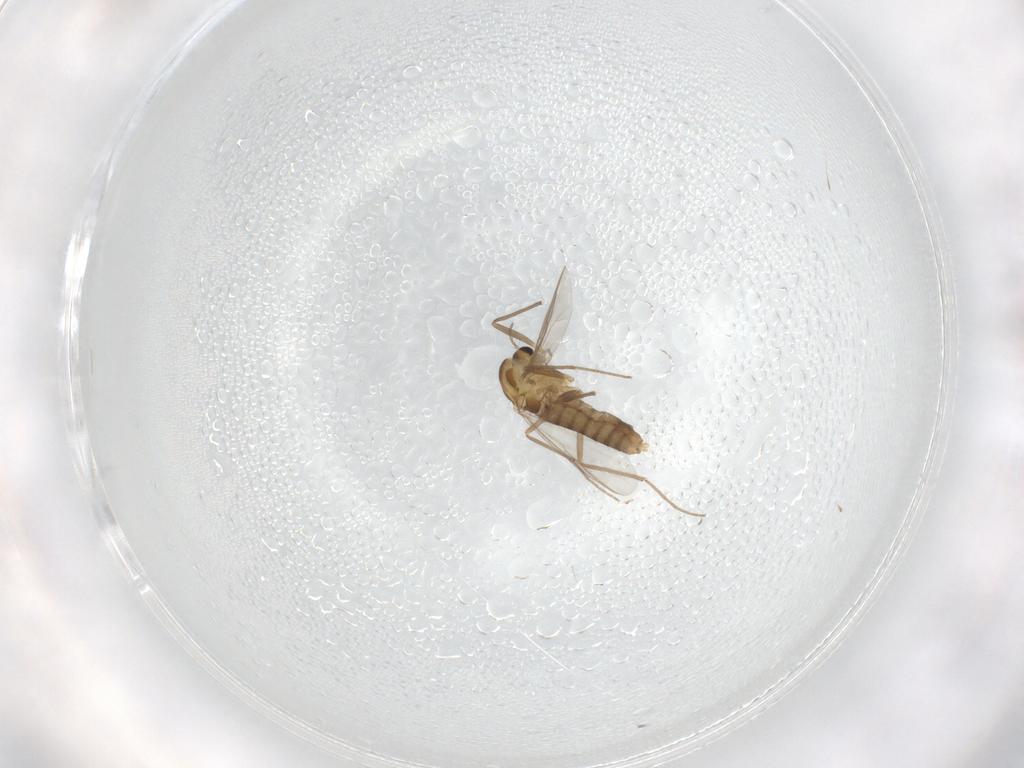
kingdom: Animalia
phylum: Arthropoda
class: Insecta
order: Diptera
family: Chironomidae
